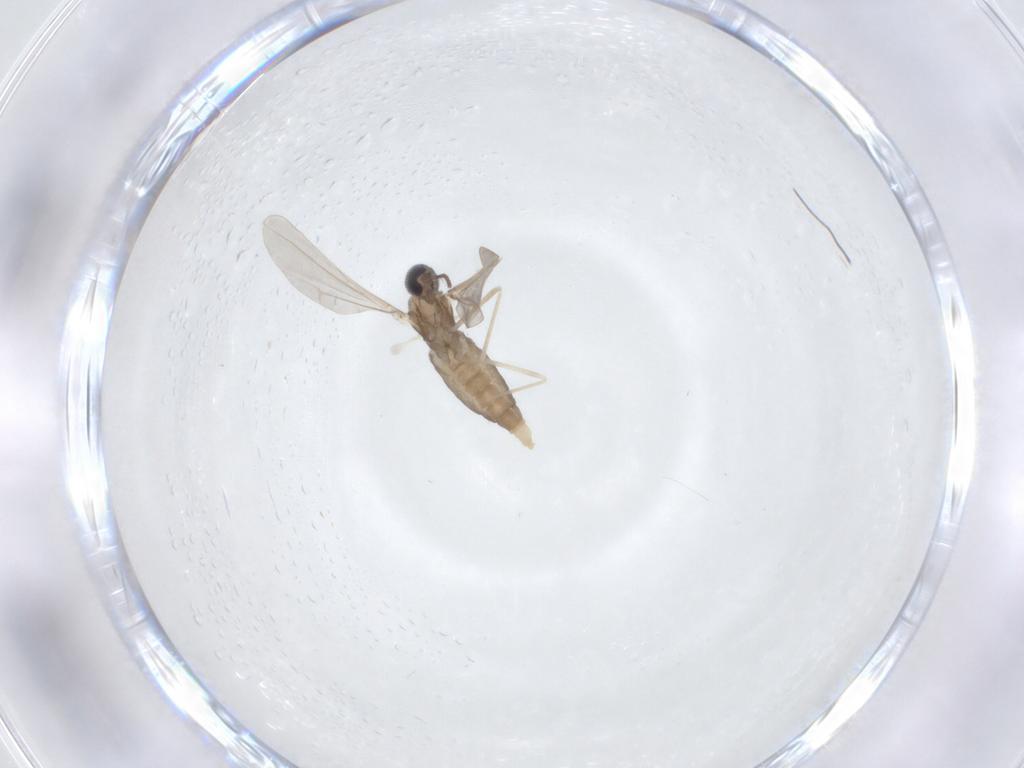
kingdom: Animalia
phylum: Arthropoda
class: Insecta
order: Diptera
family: Cecidomyiidae
